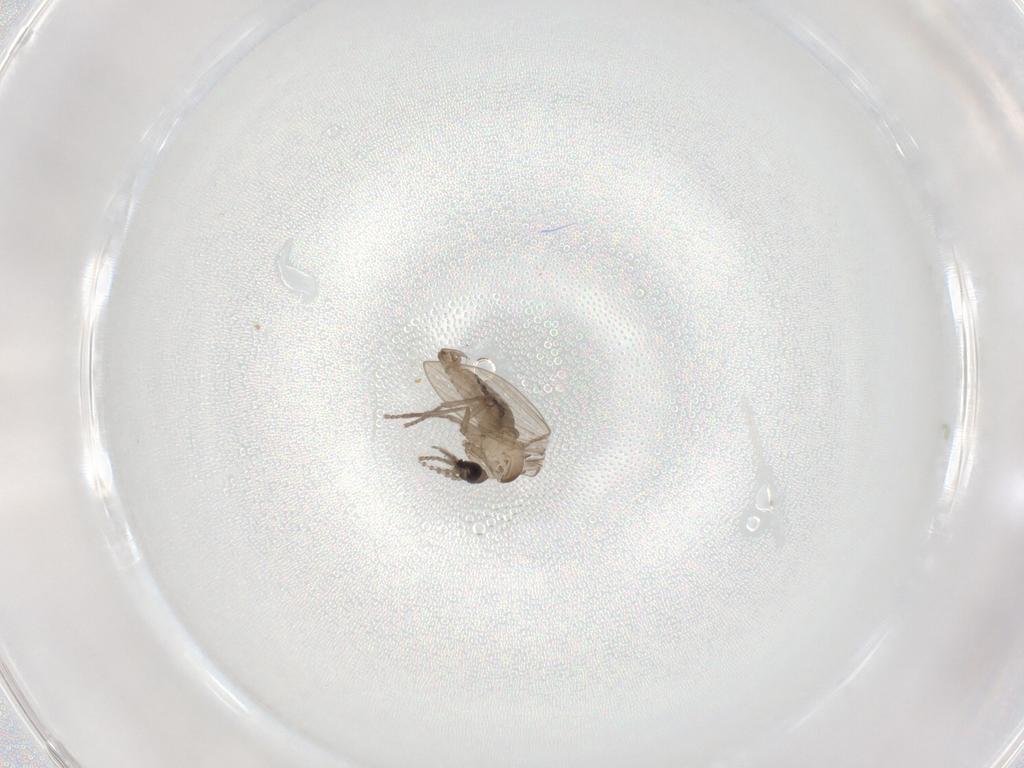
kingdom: Animalia
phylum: Arthropoda
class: Insecta
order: Diptera
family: Psychodidae
